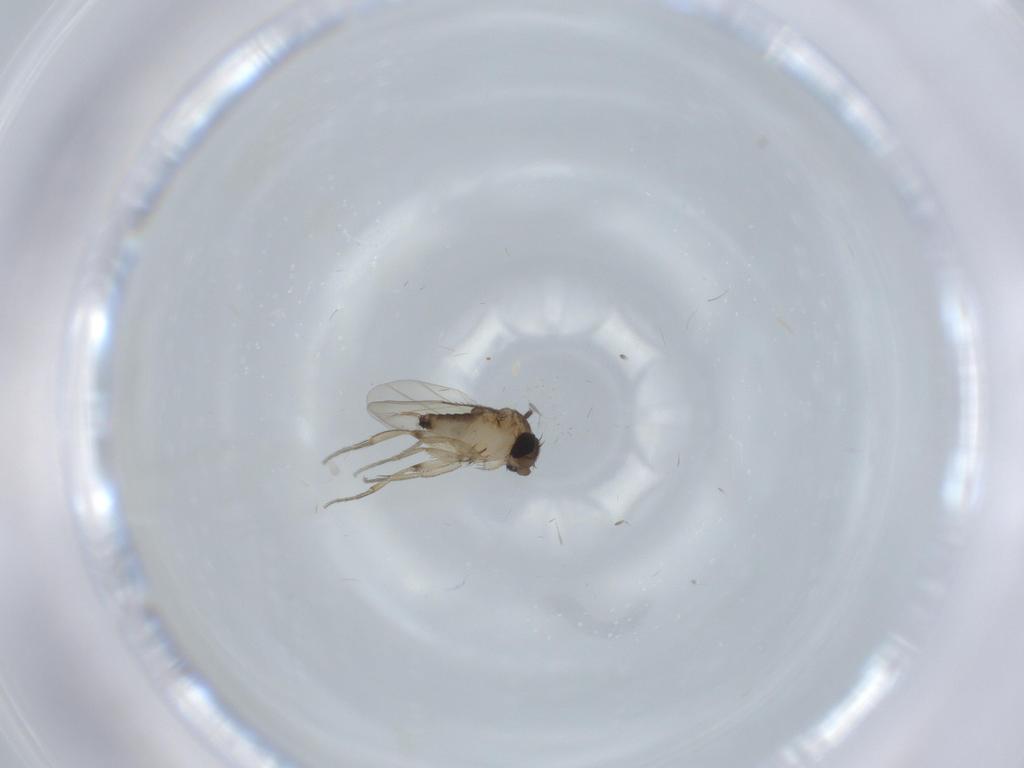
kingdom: Animalia
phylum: Arthropoda
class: Insecta
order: Diptera
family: Phoridae
